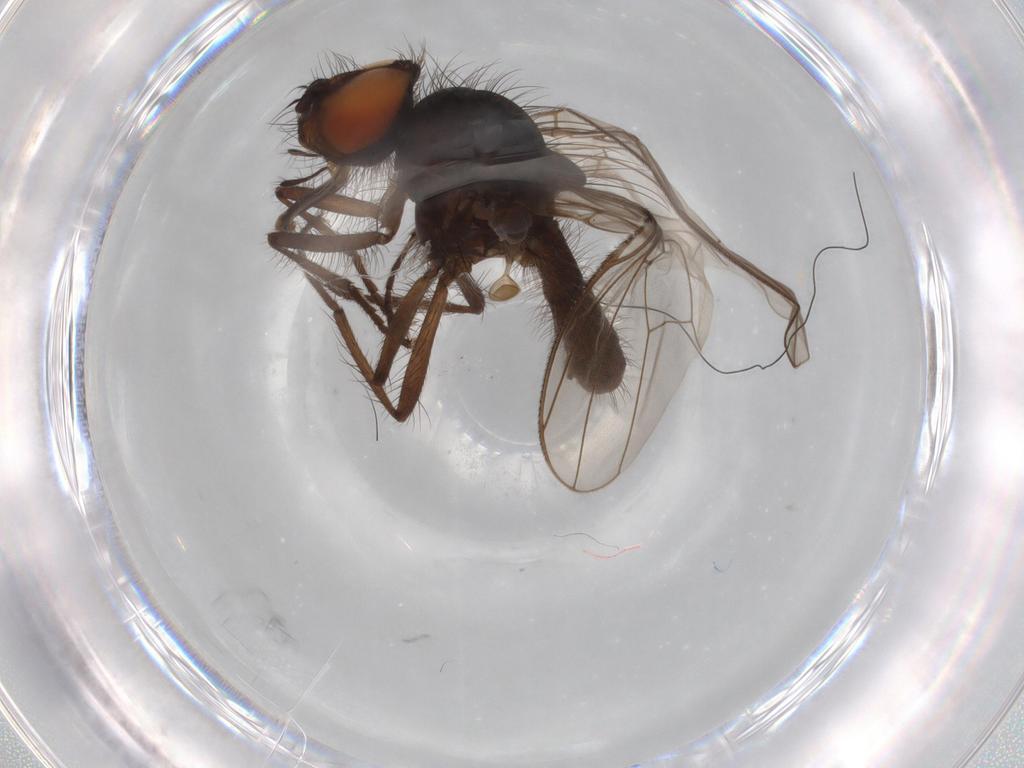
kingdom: Animalia
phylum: Arthropoda
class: Insecta
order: Diptera
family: Anthomyiidae
